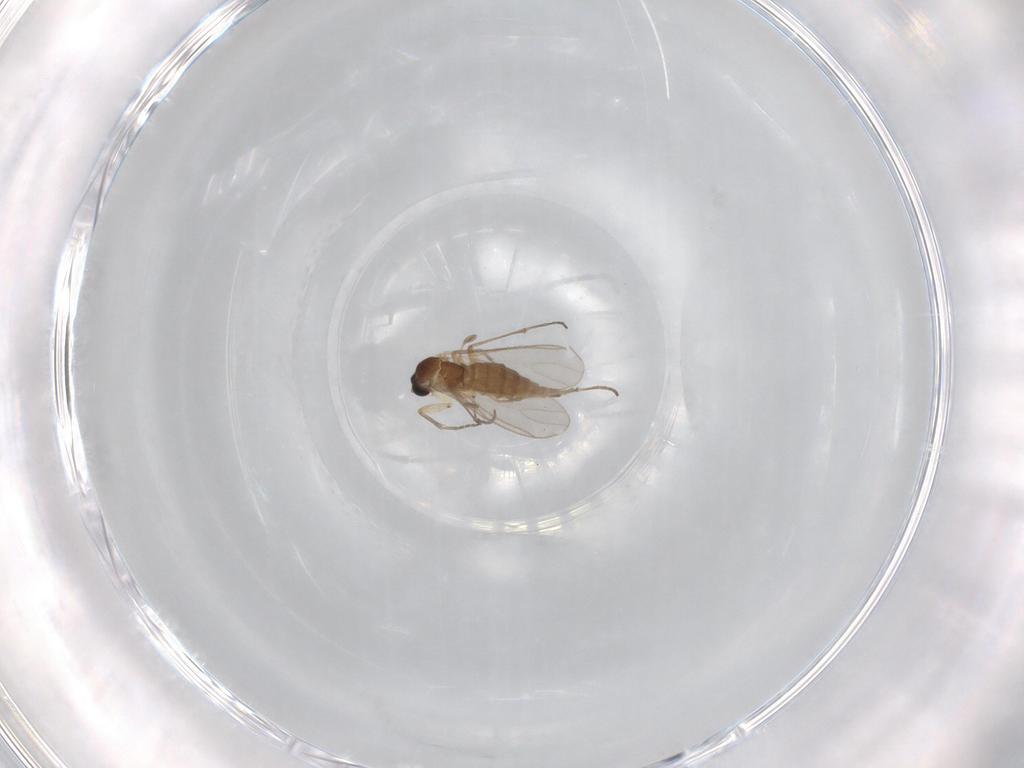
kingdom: Animalia
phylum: Arthropoda
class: Insecta
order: Diptera
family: Sciaridae
